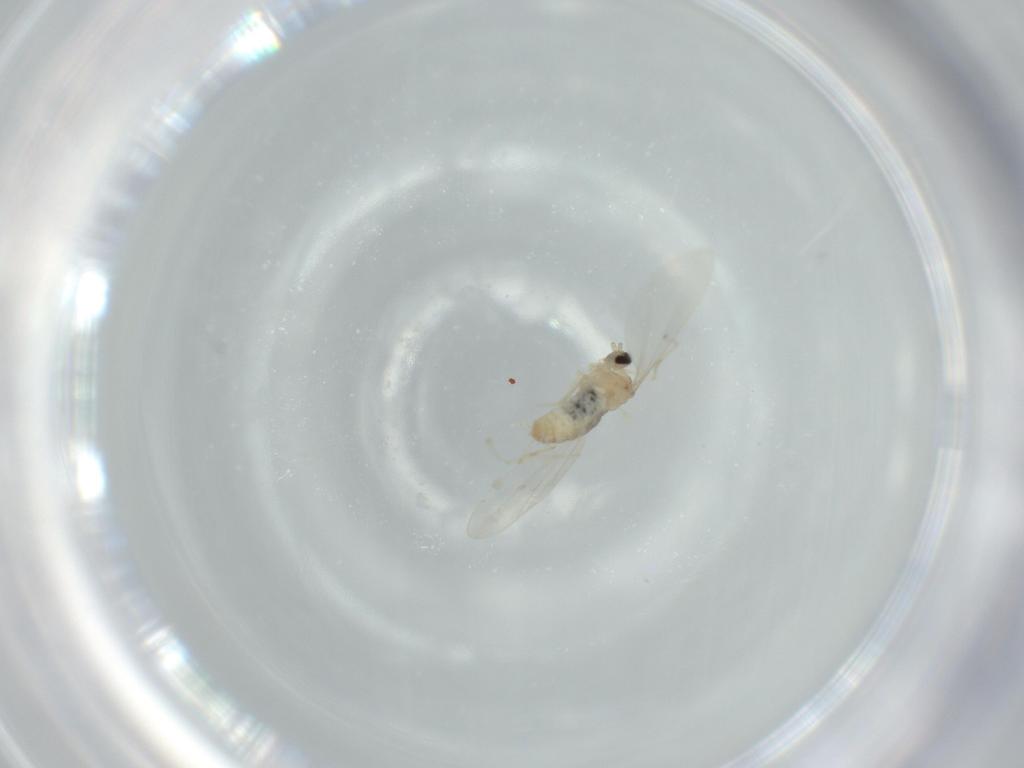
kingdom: Animalia
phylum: Arthropoda
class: Insecta
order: Diptera
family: Cecidomyiidae
